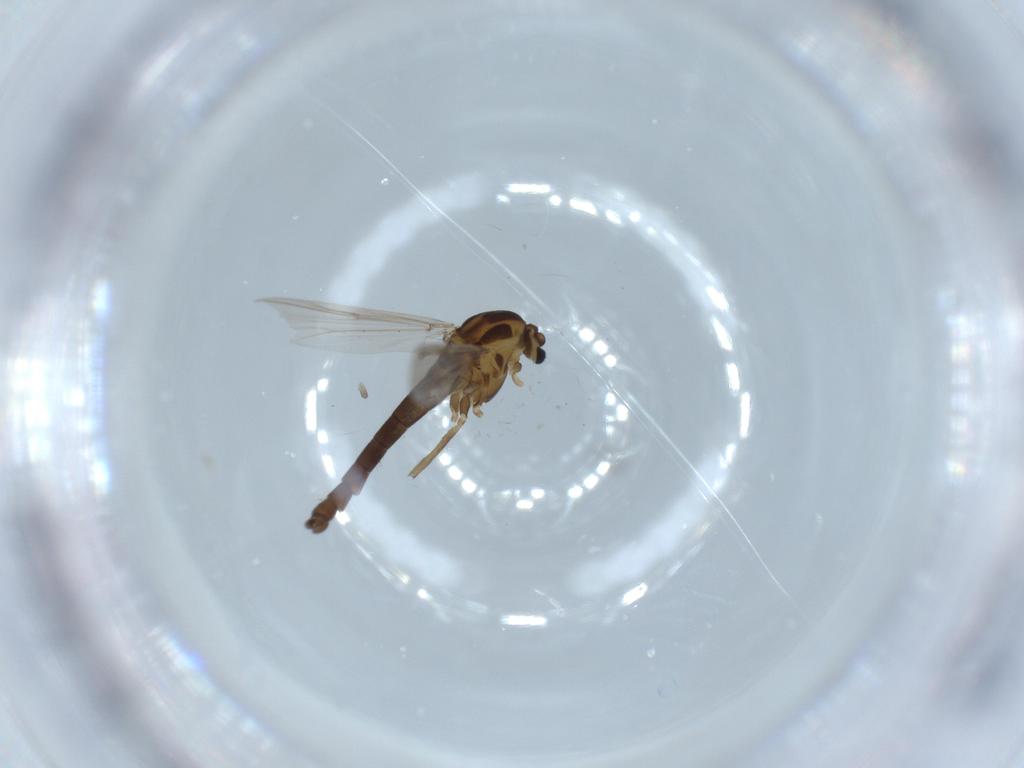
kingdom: Animalia
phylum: Arthropoda
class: Insecta
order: Diptera
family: Chironomidae
